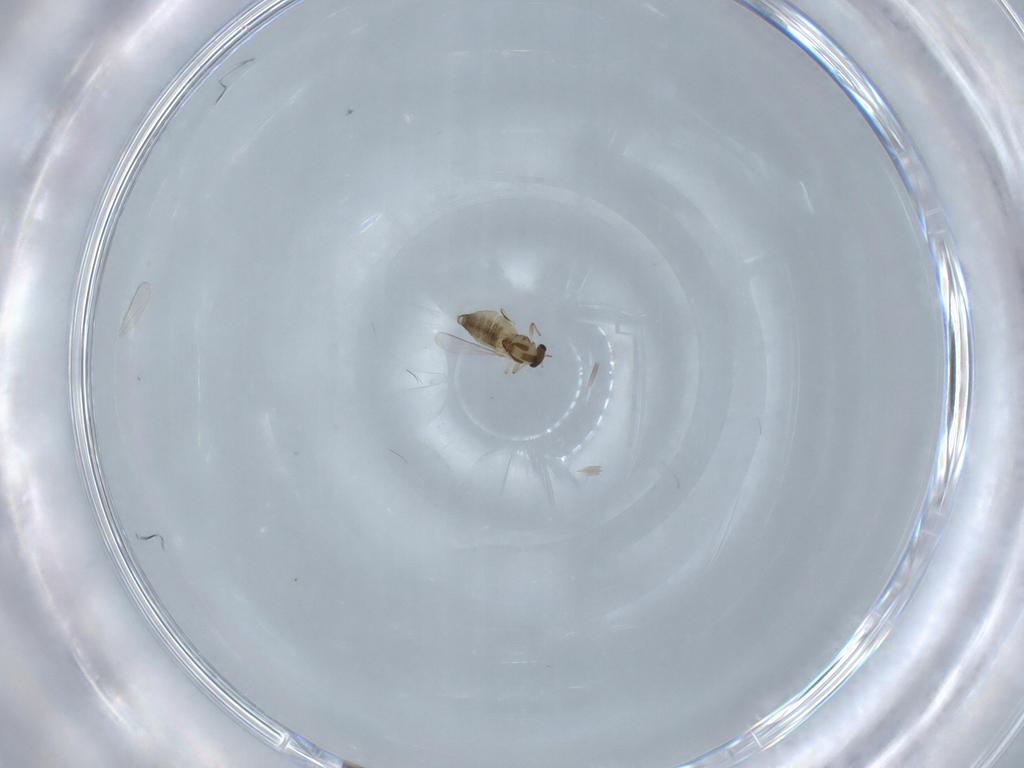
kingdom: Animalia
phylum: Arthropoda
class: Insecta
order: Diptera
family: Chironomidae
